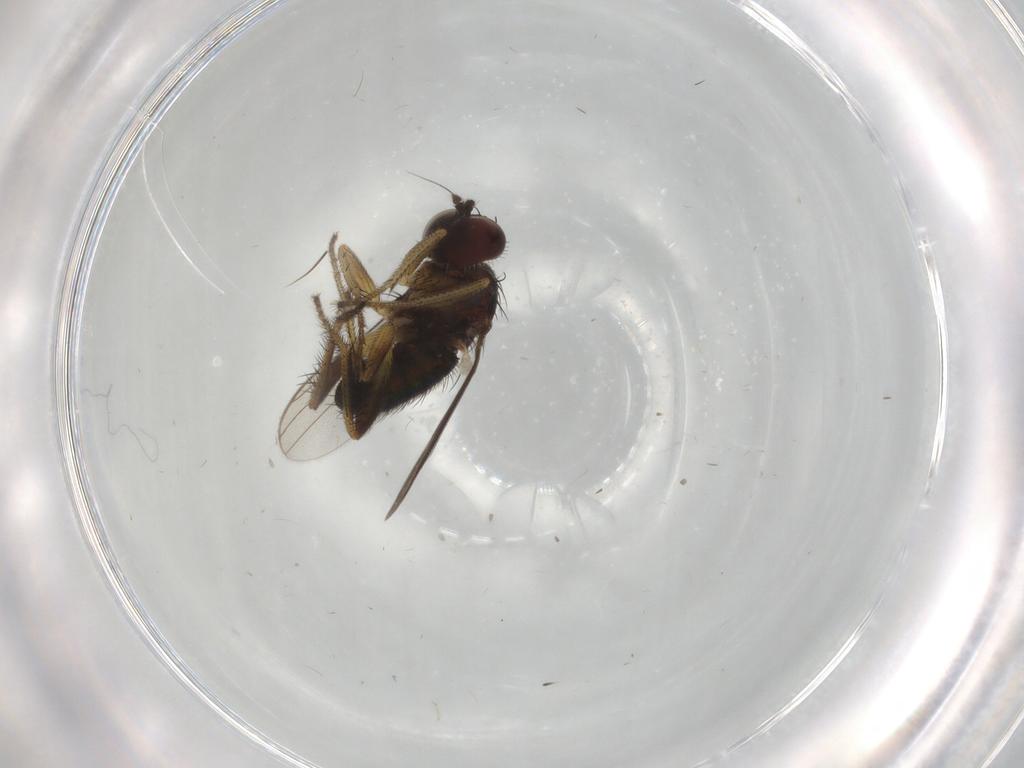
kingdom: Animalia
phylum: Arthropoda
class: Insecta
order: Diptera
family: Dolichopodidae
